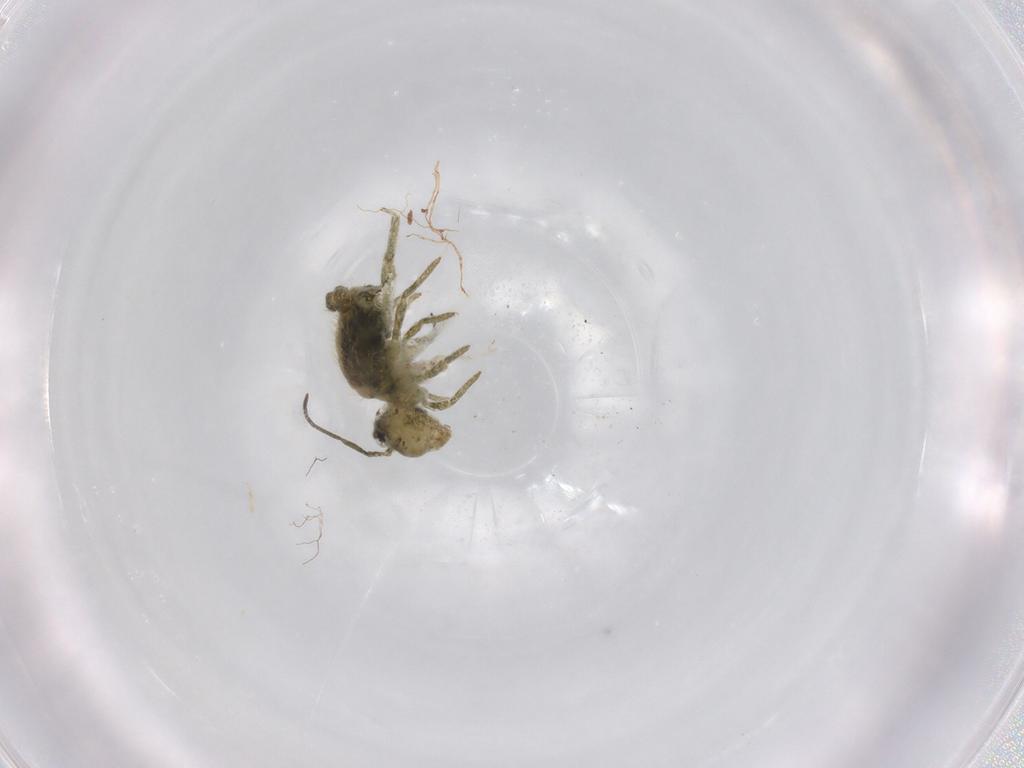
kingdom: Animalia
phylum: Arthropoda
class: Collembola
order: Symphypleona
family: Sminthuridae
